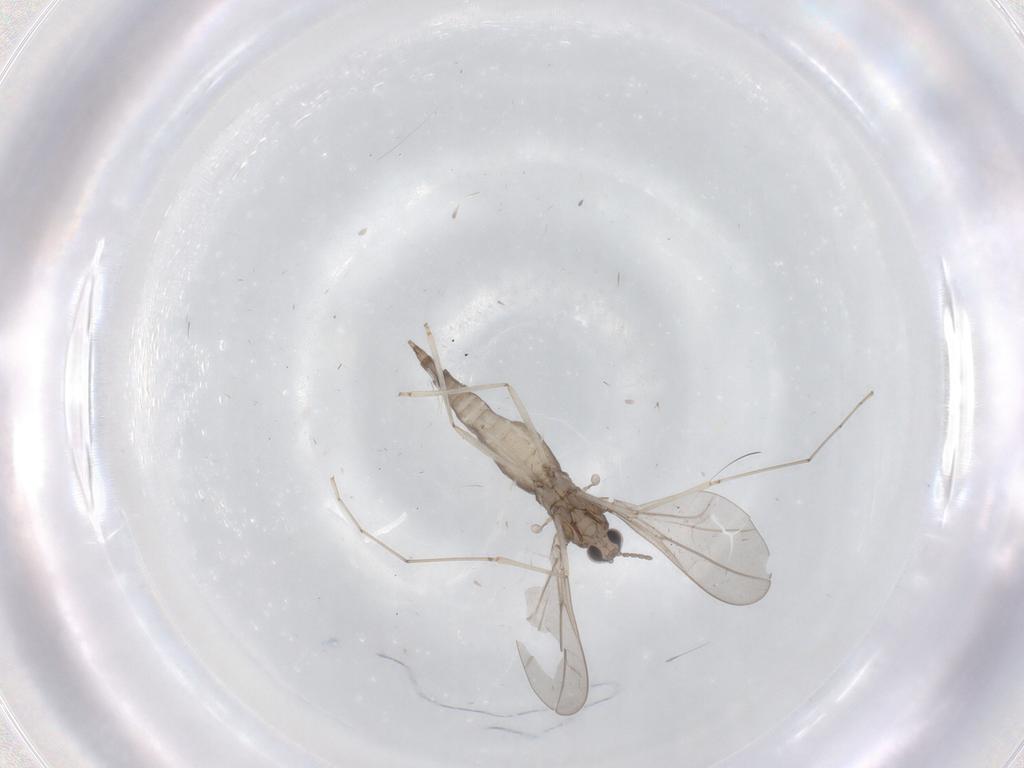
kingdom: Animalia
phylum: Arthropoda
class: Insecta
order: Diptera
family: Cecidomyiidae
